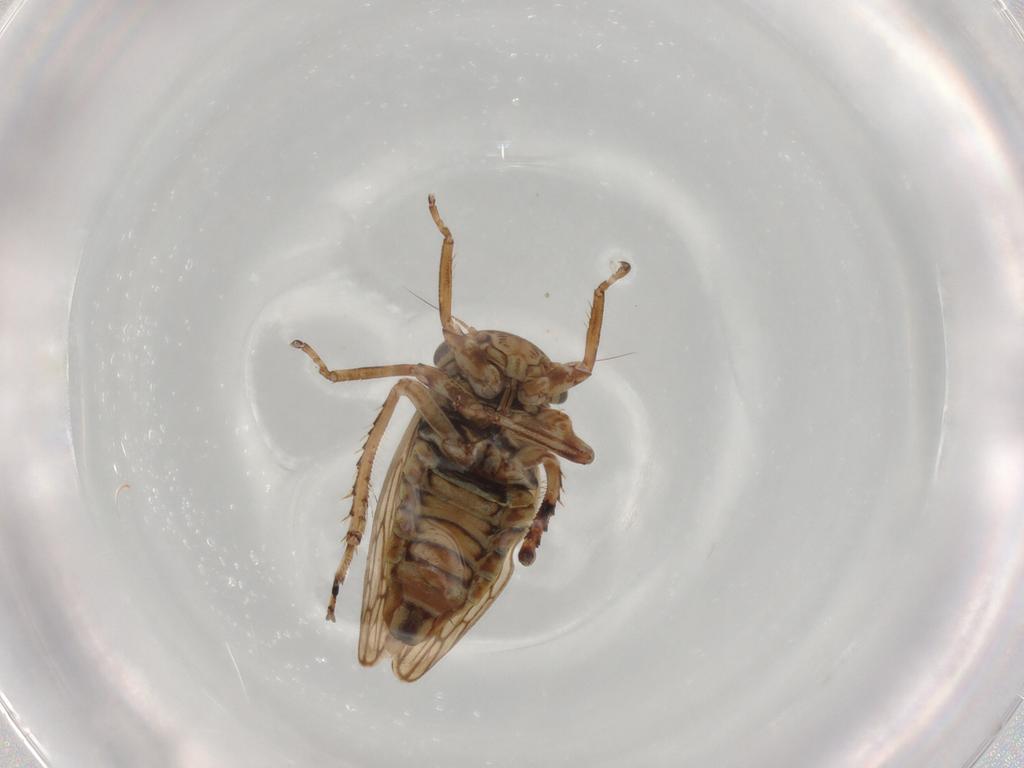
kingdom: Animalia
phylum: Arthropoda
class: Insecta
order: Hemiptera
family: Cicadellidae
